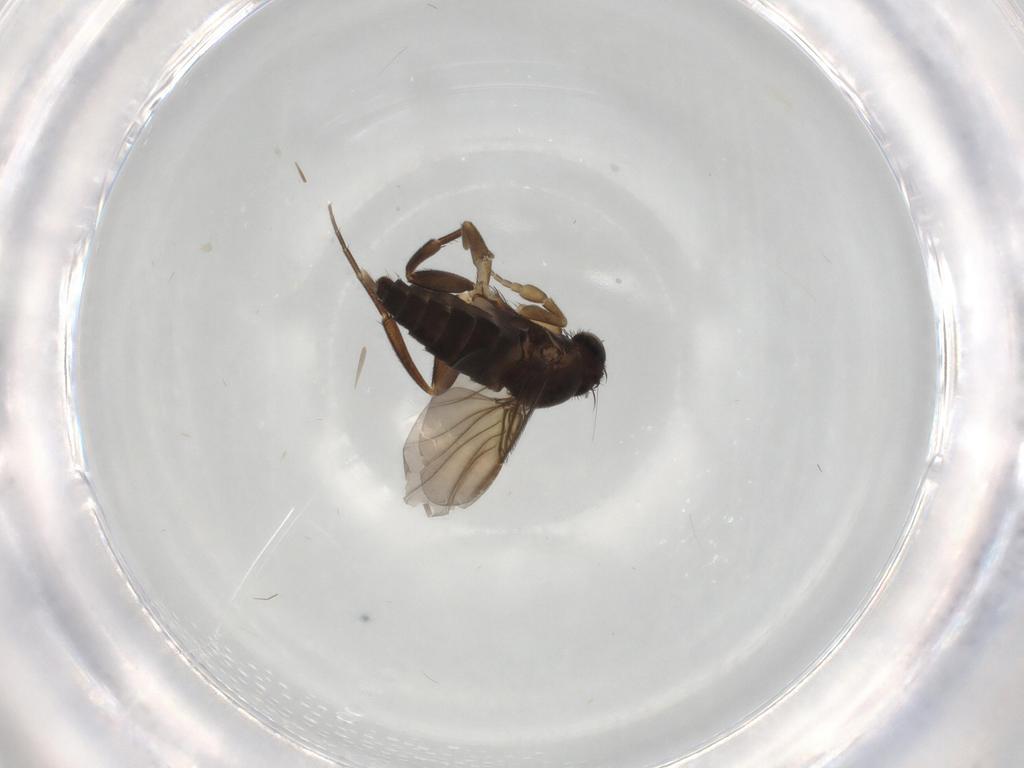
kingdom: Animalia
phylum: Arthropoda
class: Insecta
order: Diptera
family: Phoridae
